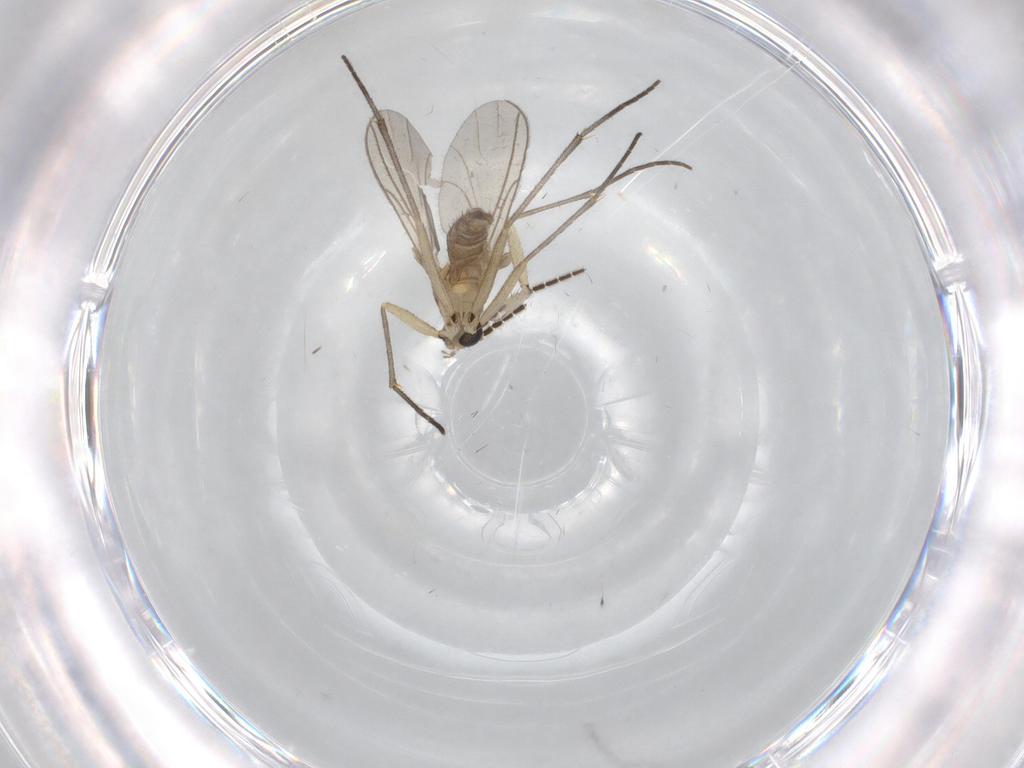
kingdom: Animalia
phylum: Arthropoda
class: Insecta
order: Diptera
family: Sciaridae
